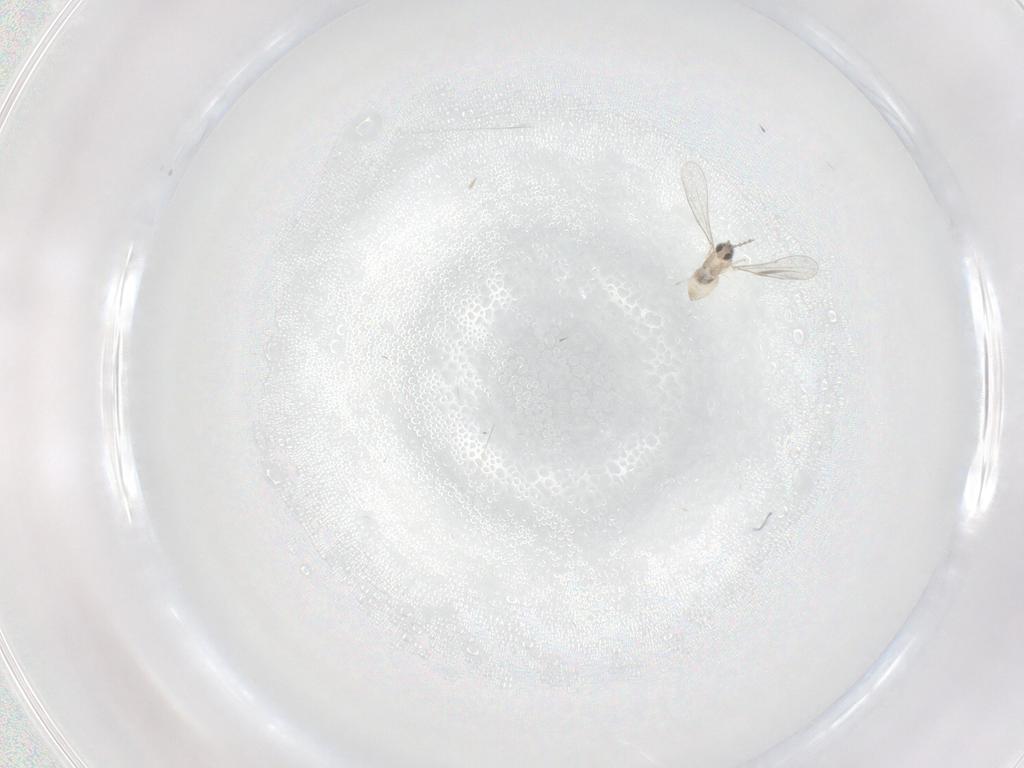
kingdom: Animalia
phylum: Arthropoda
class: Insecta
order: Diptera
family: Cecidomyiidae
